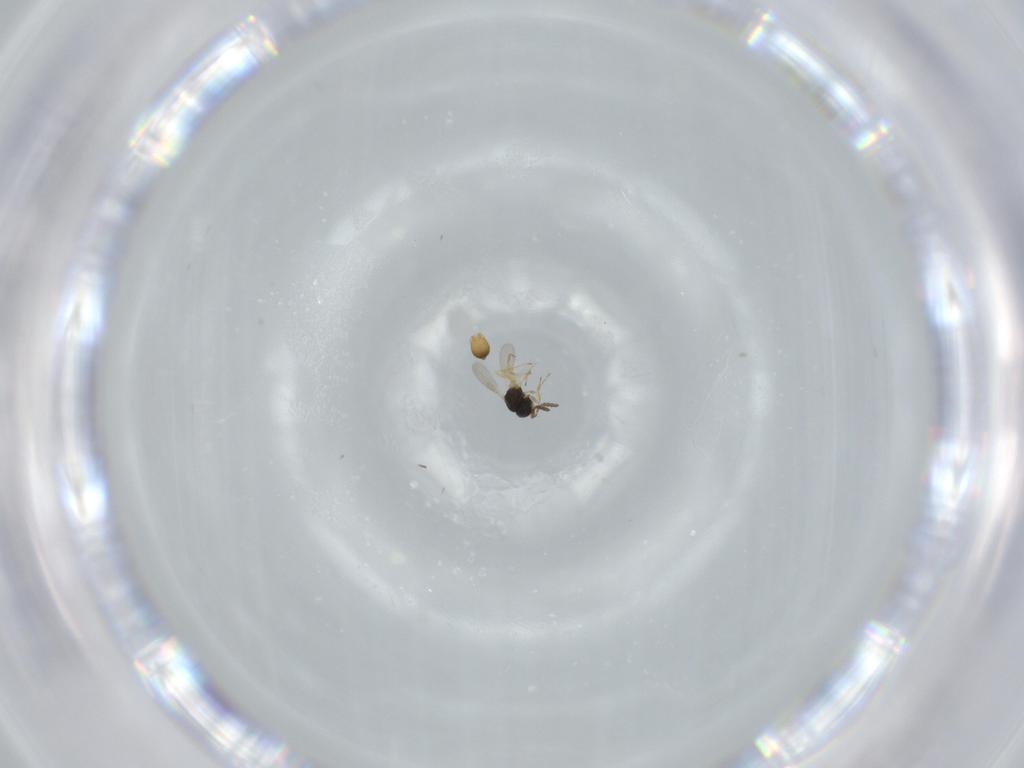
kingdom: Animalia
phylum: Arthropoda
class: Insecta
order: Hymenoptera
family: Scelionidae
